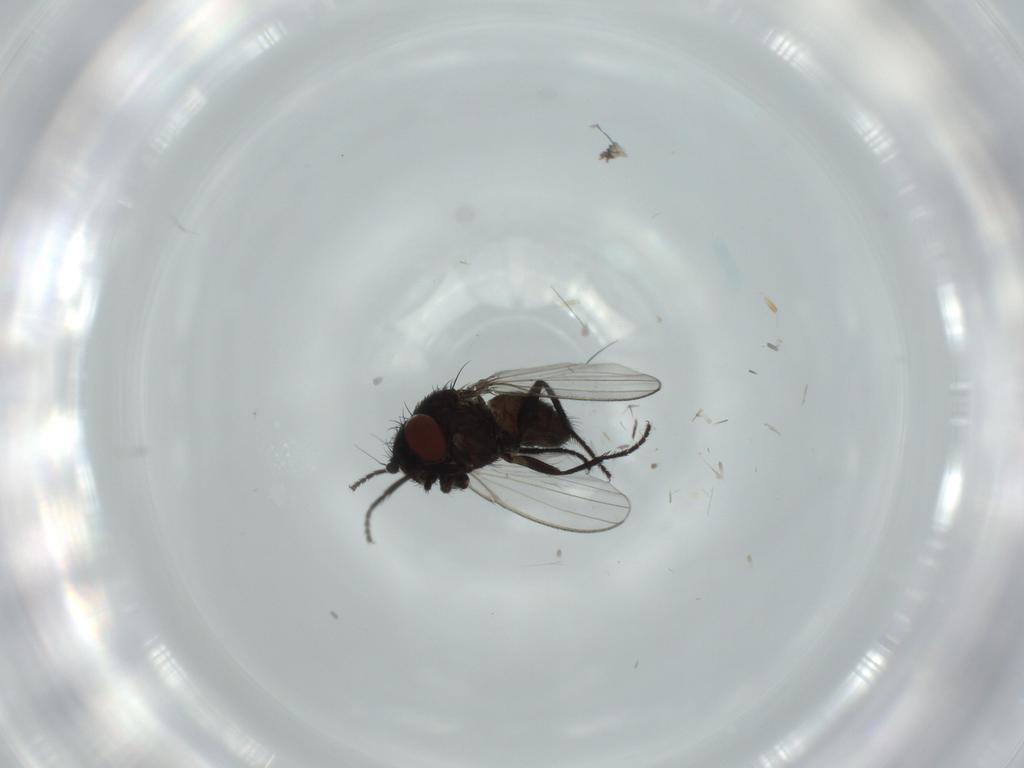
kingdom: Animalia
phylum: Arthropoda
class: Insecta
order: Diptera
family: Phoridae
